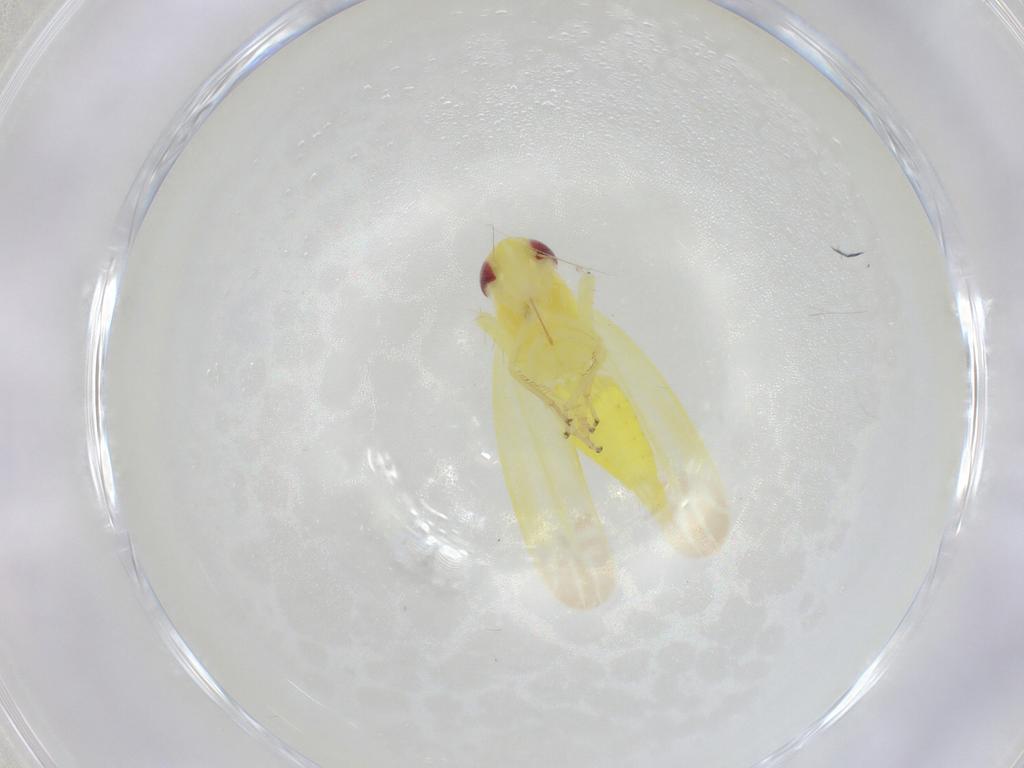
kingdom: Animalia
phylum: Arthropoda
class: Insecta
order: Hemiptera
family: Cicadellidae
